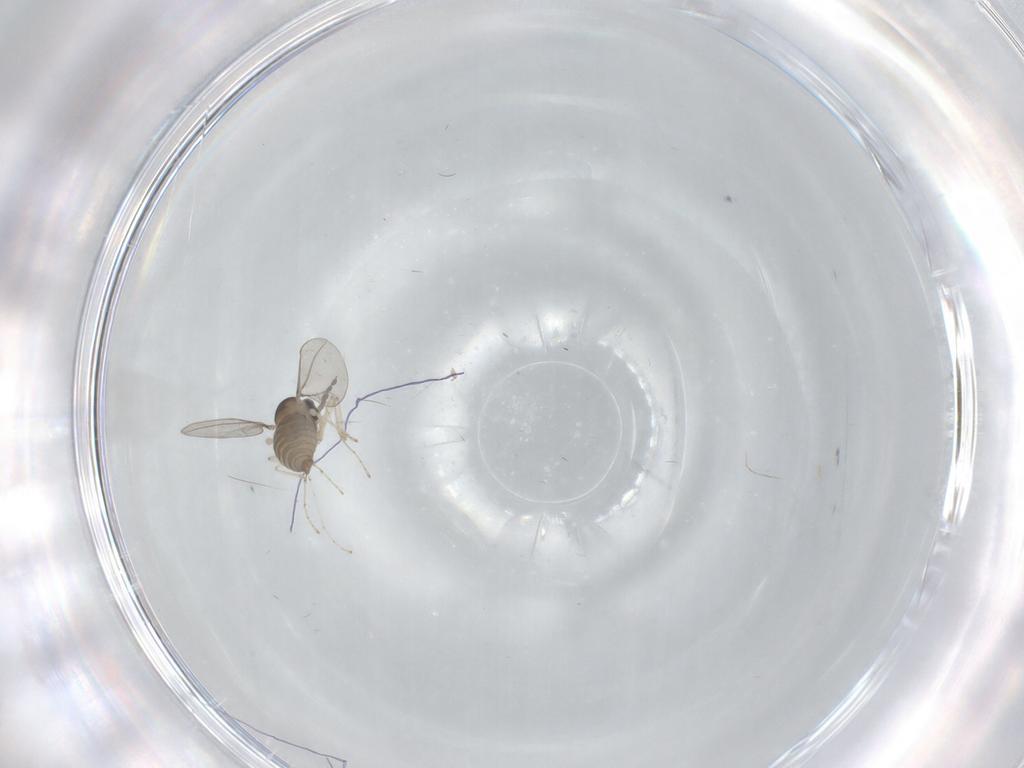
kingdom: Animalia
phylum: Arthropoda
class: Insecta
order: Diptera
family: Cecidomyiidae
